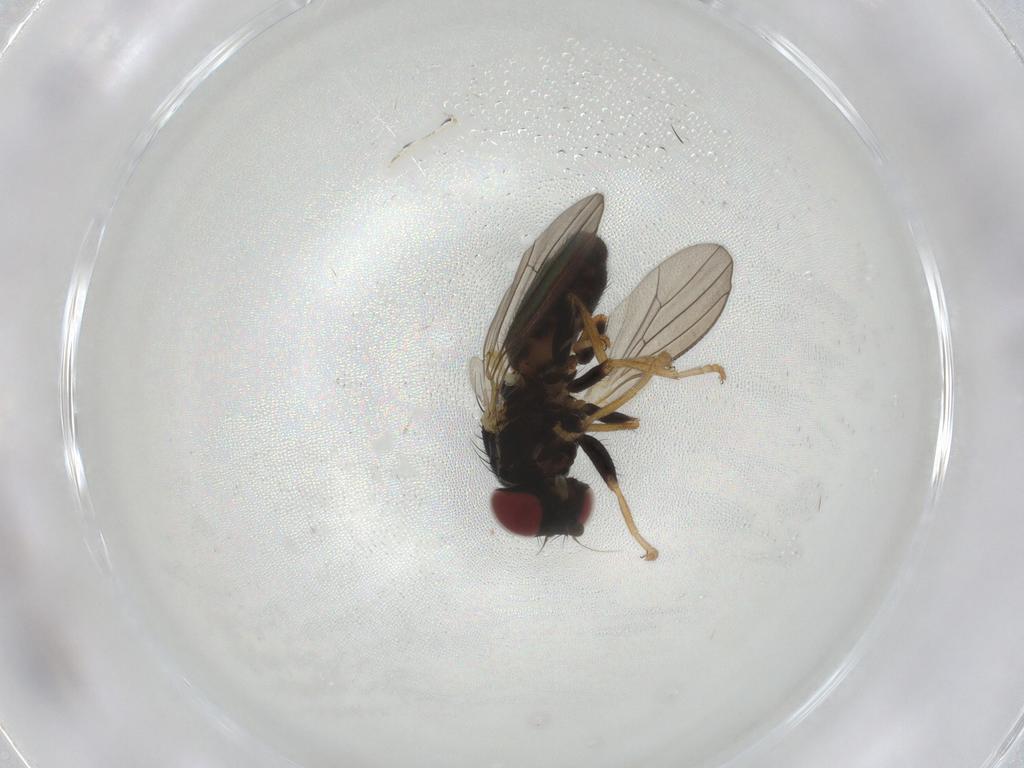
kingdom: Animalia
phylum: Arthropoda
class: Insecta
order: Diptera
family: Chamaemyiidae
